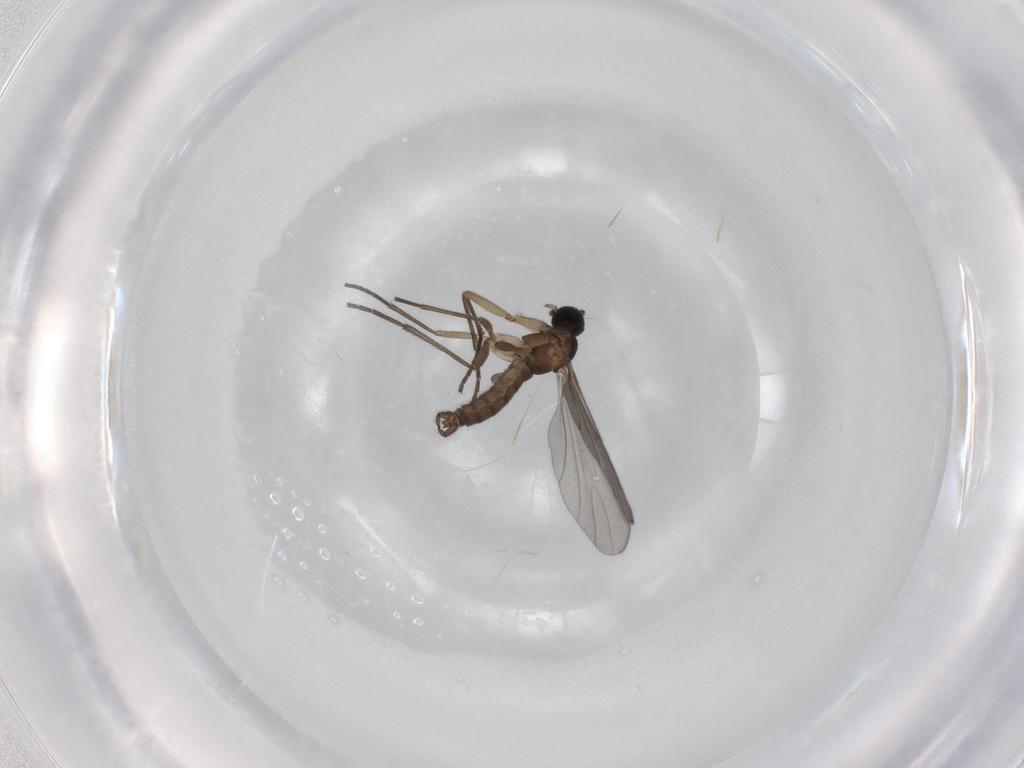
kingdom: Animalia
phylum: Arthropoda
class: Insecta
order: Diptera
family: Sciaridae
